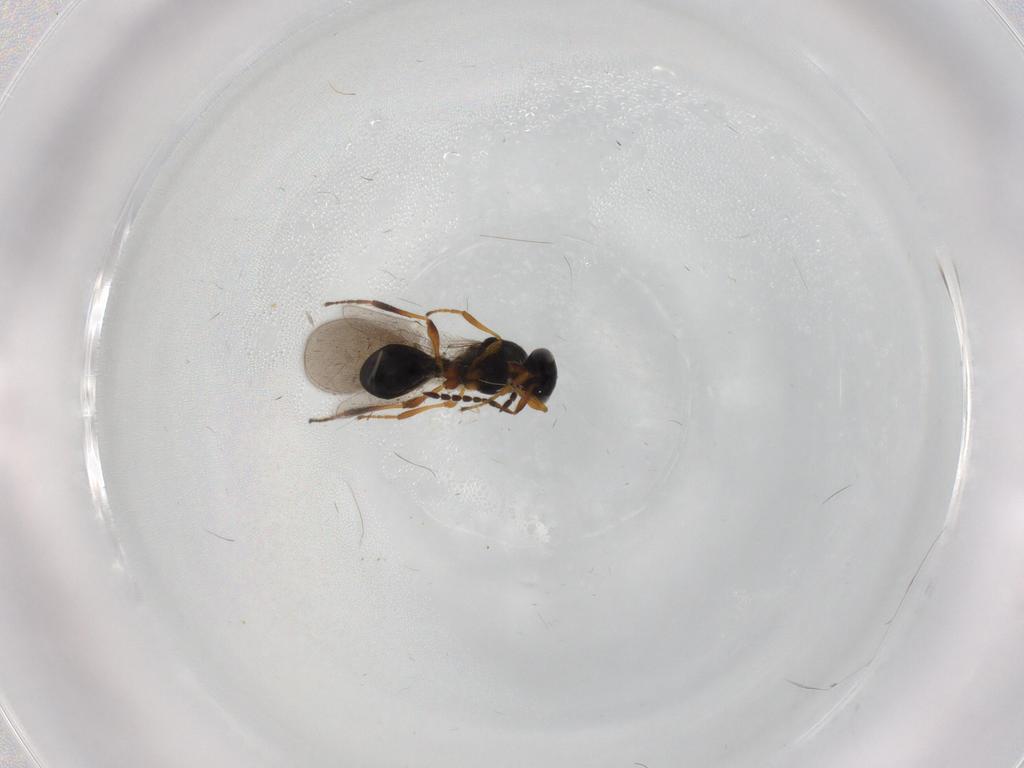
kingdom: Animalia
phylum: Arthropoda
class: Insecta
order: Hymenoptera
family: Platygastridae
